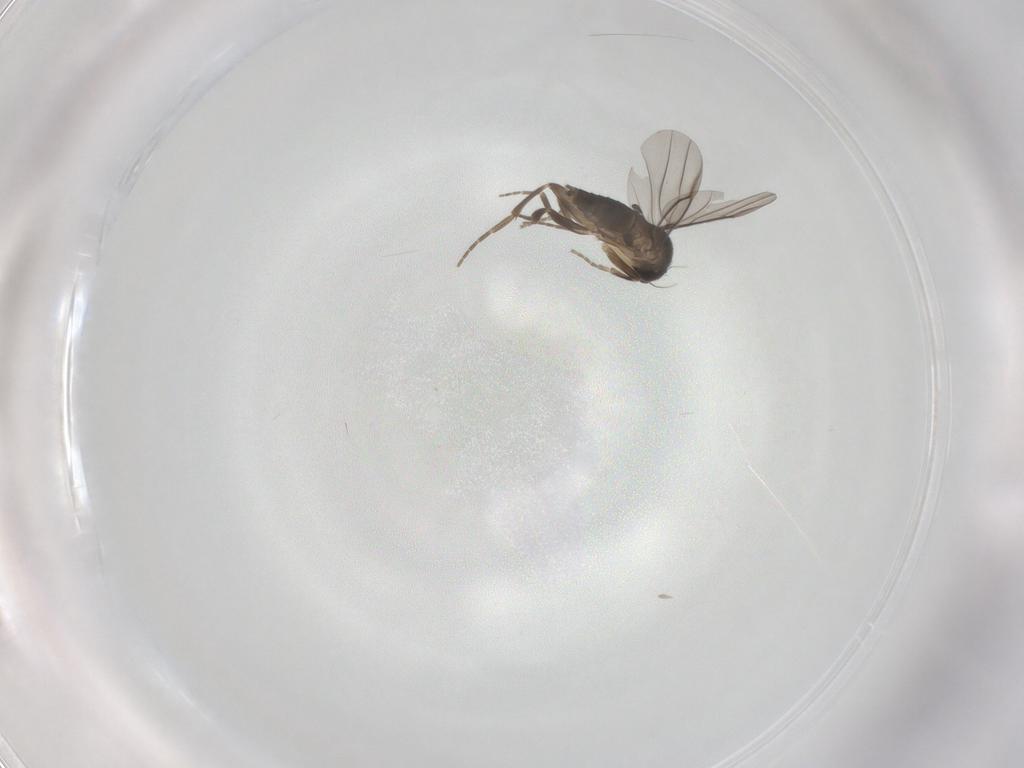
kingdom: Animalia
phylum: Arthropoda
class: Insecta
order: Diptera
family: Phoridae
